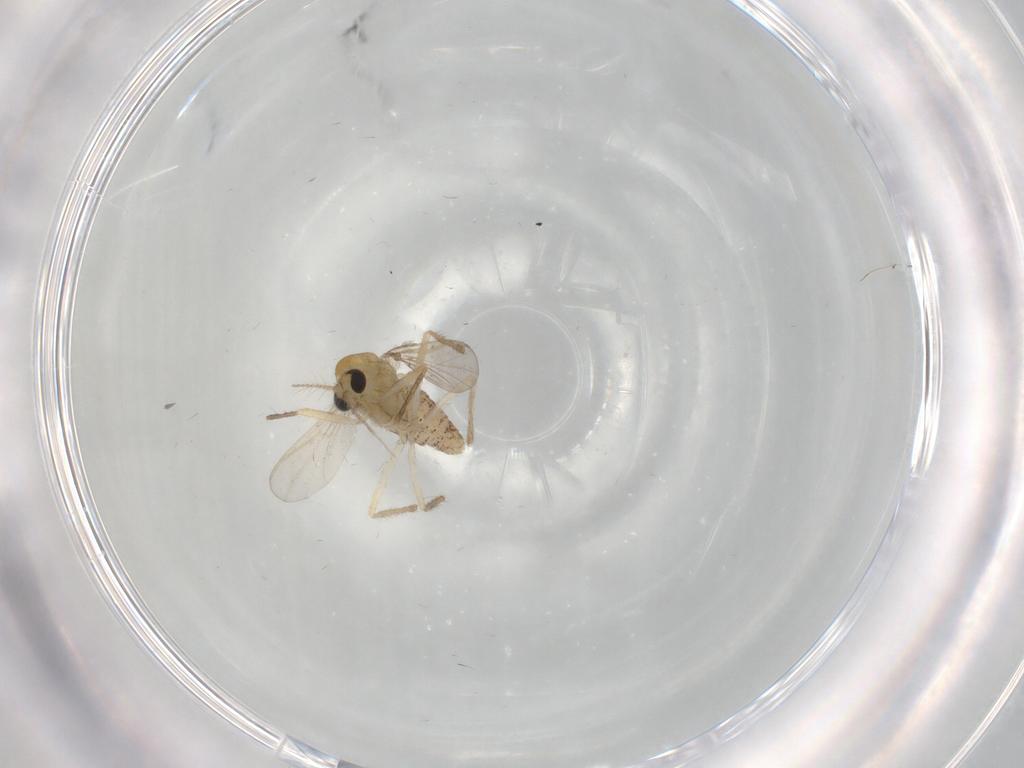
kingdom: Animalia
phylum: Arthropoda
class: Insecta
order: Diptera
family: Chironomidae
